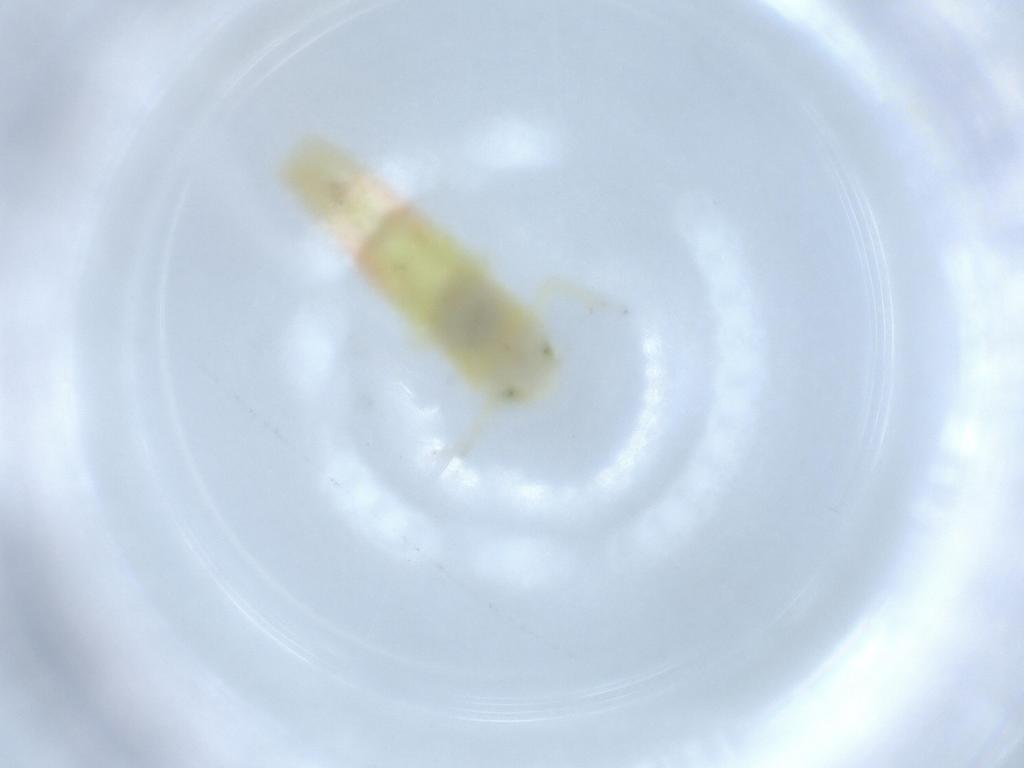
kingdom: Animalia
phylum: Arthropoda
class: Insecta
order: Hemiptera
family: Cicadellidae
